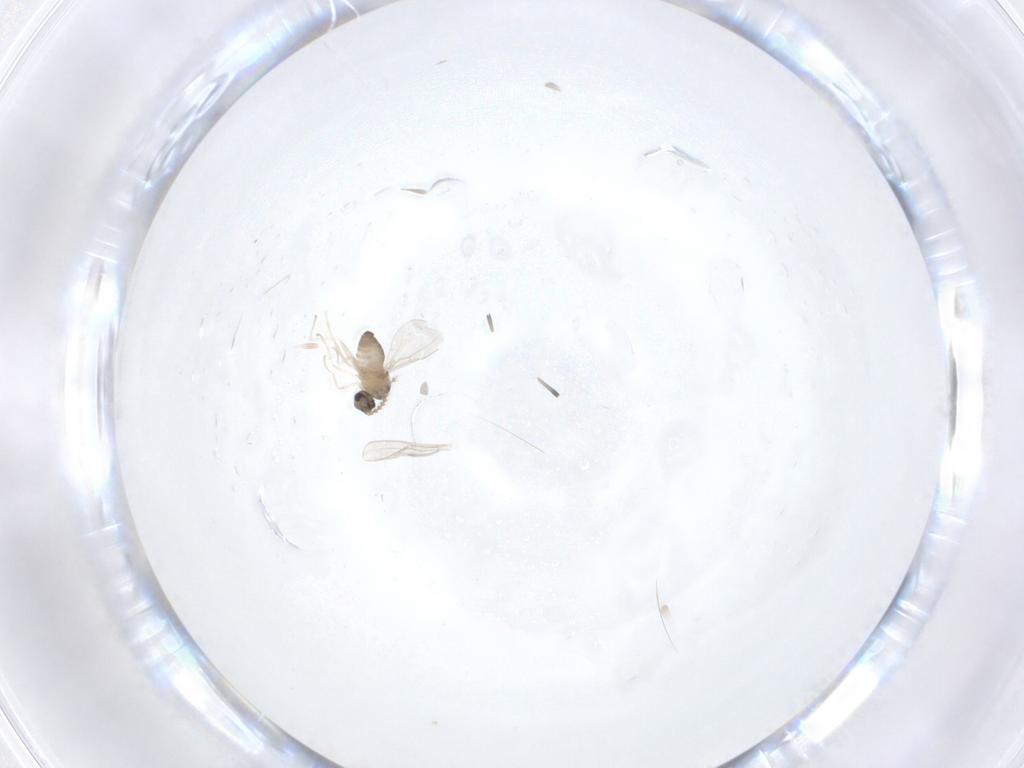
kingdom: Animalia
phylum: Arthropoda
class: Insecta
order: Diptera
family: Cecidomyiidae
